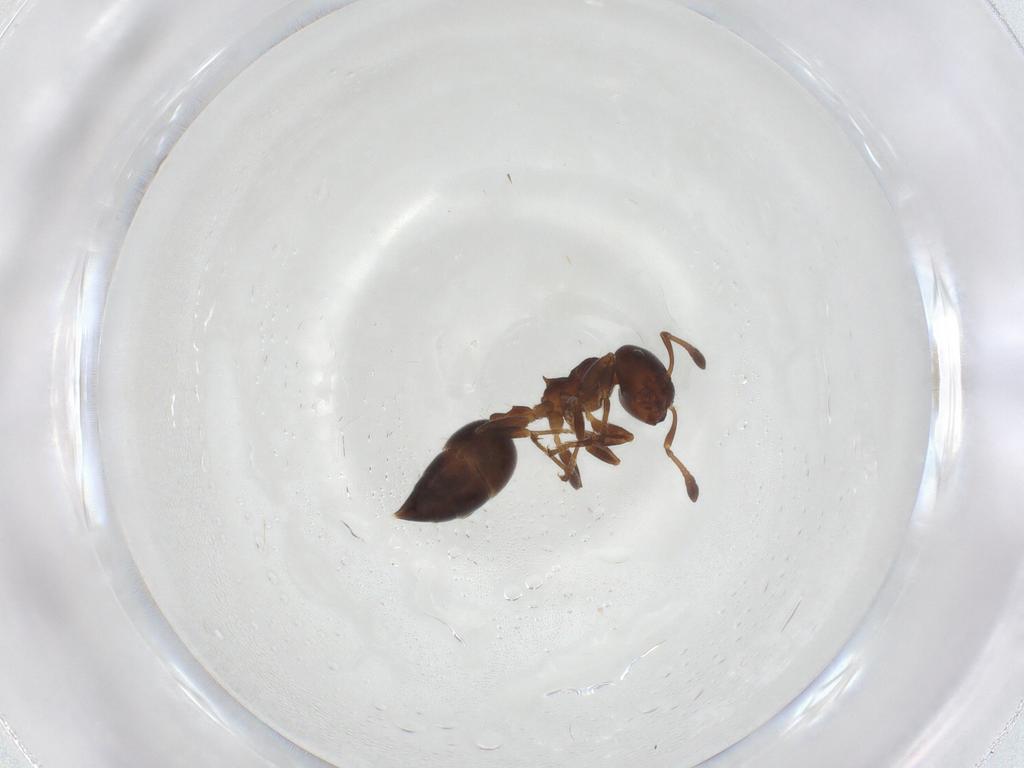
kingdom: Animalia
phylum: Arthropoda
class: Insecta
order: Hymenoptera
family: Formicidae
